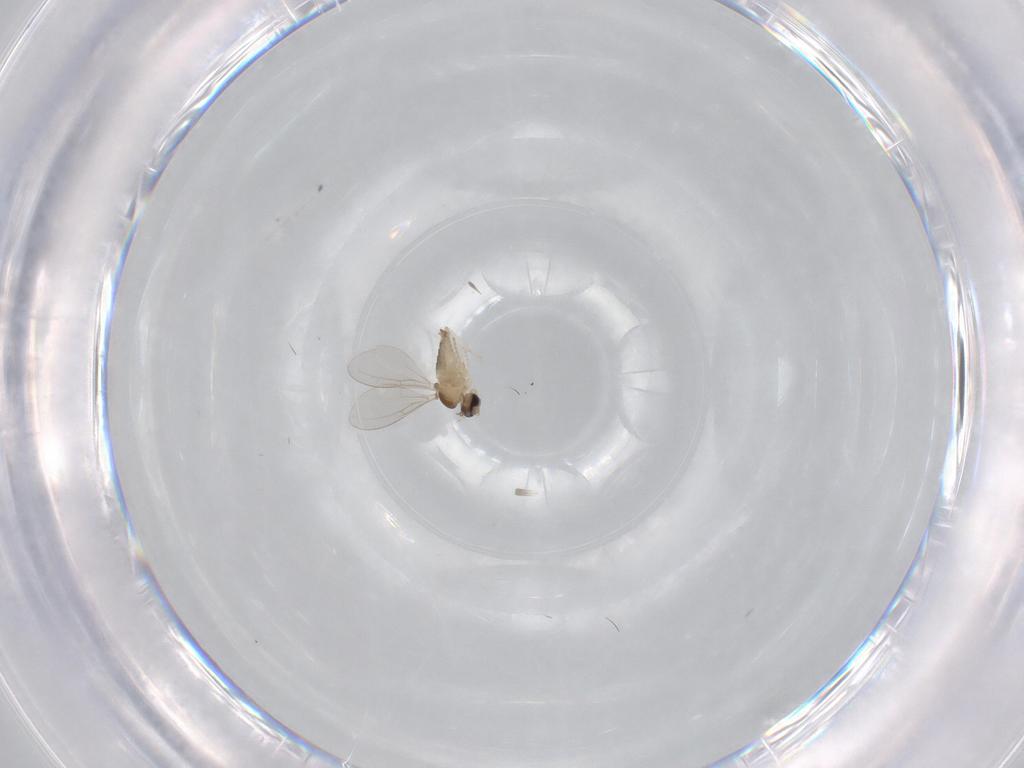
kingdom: Animalia
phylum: Arthropoda
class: Insecta
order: Diptera
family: Cecidomyiidae
